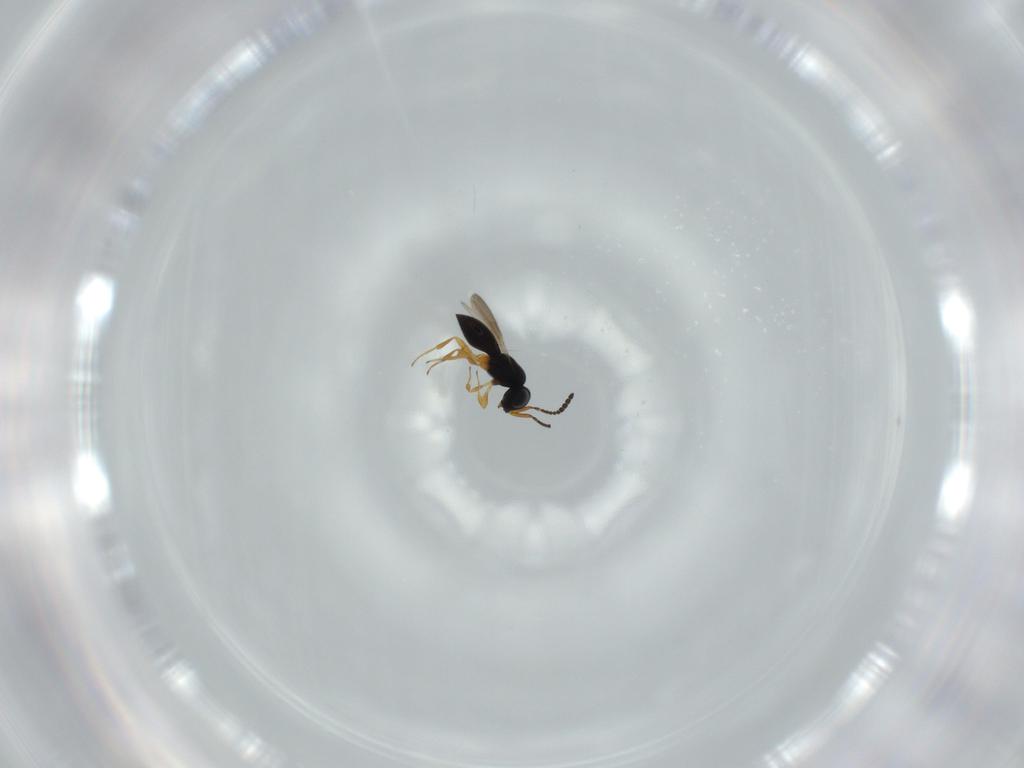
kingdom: Animalia
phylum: Arthropoda
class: Insecta
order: Hymenoptera
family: Scelionidae
